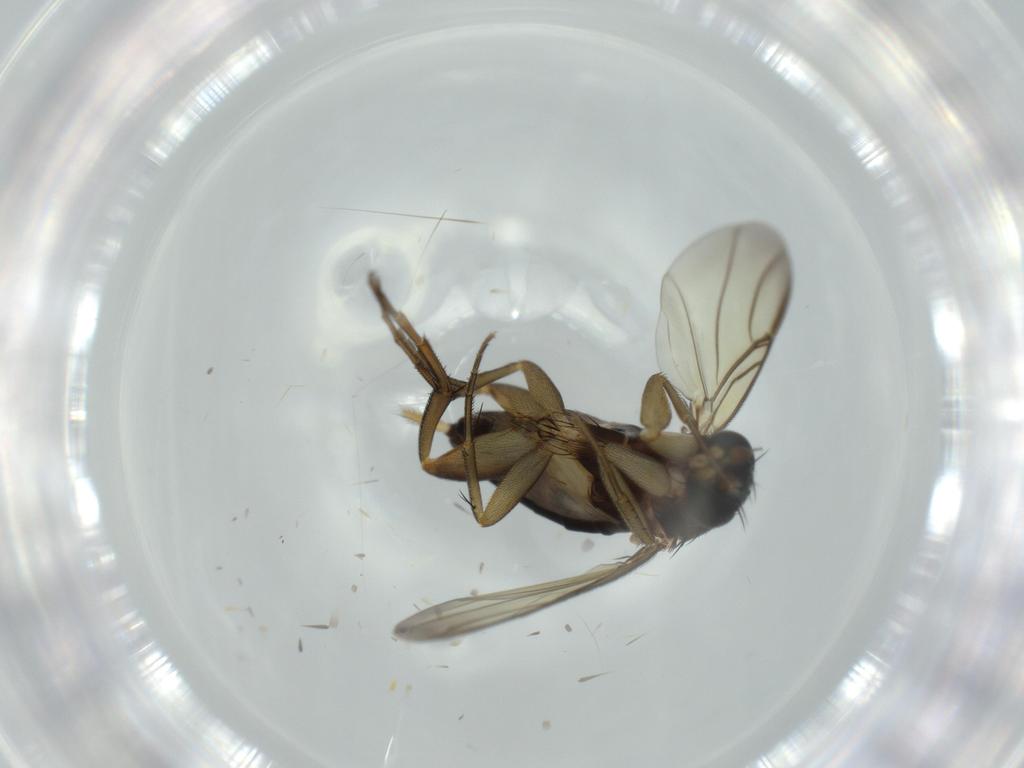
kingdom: Animalia
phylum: Arthropoda
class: Insecta
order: Diptera
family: Phoridae
